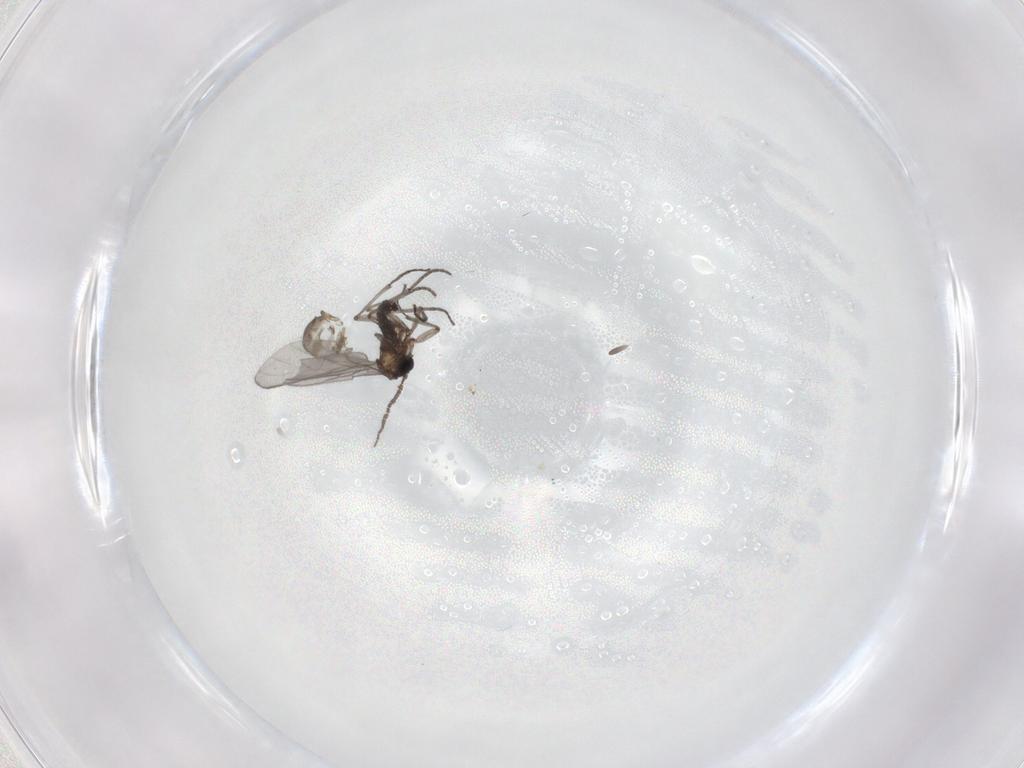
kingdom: Animalia
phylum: Arthropoda
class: Insecta
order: Diptera
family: Sciaridae
